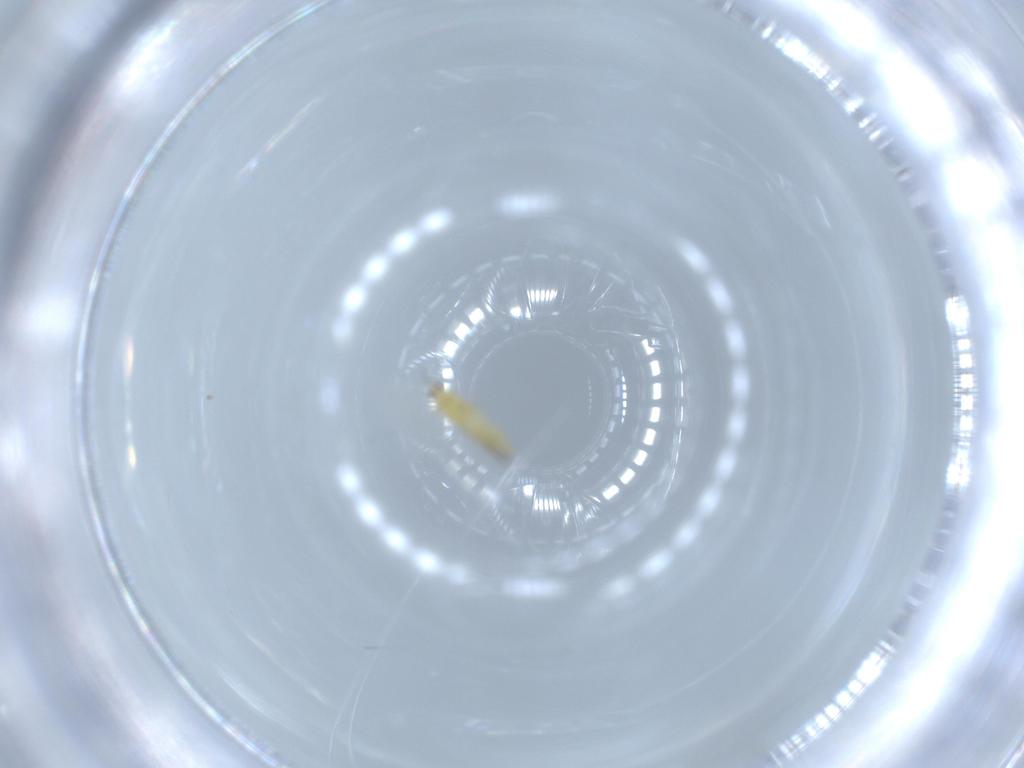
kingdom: Animalia
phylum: Arthropoda
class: Insecta
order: Thysanoptera
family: Thripidae
